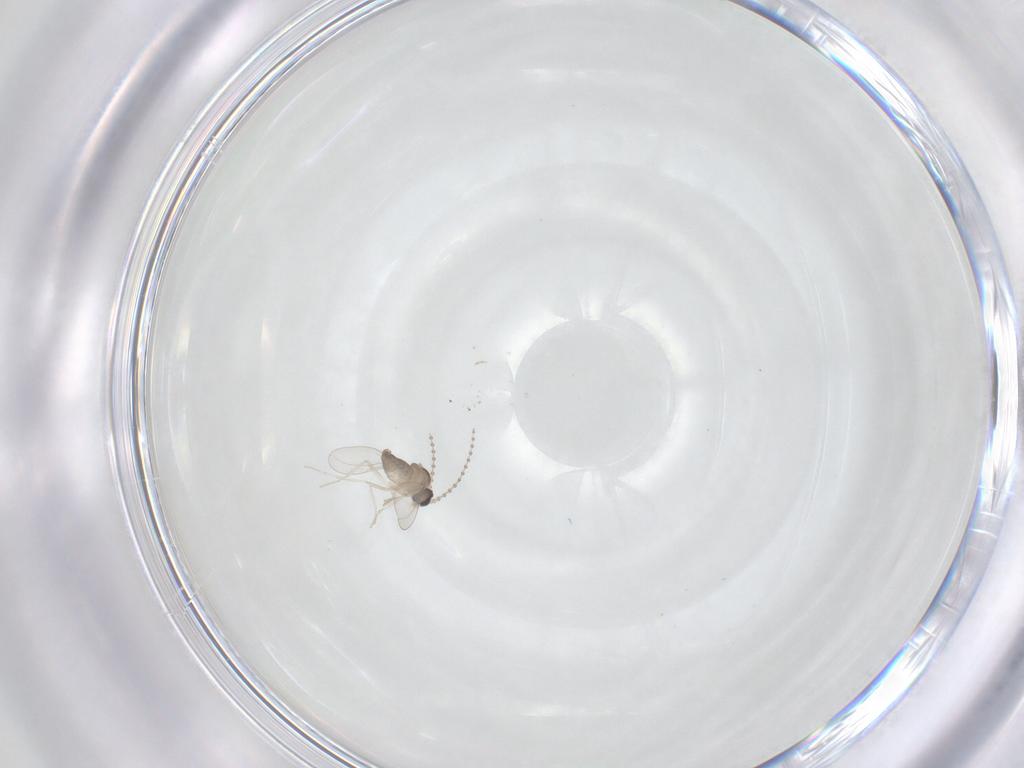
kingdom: Animalia
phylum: Arthropoda
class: Insecta
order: Diptera
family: Cecidomyiidae
